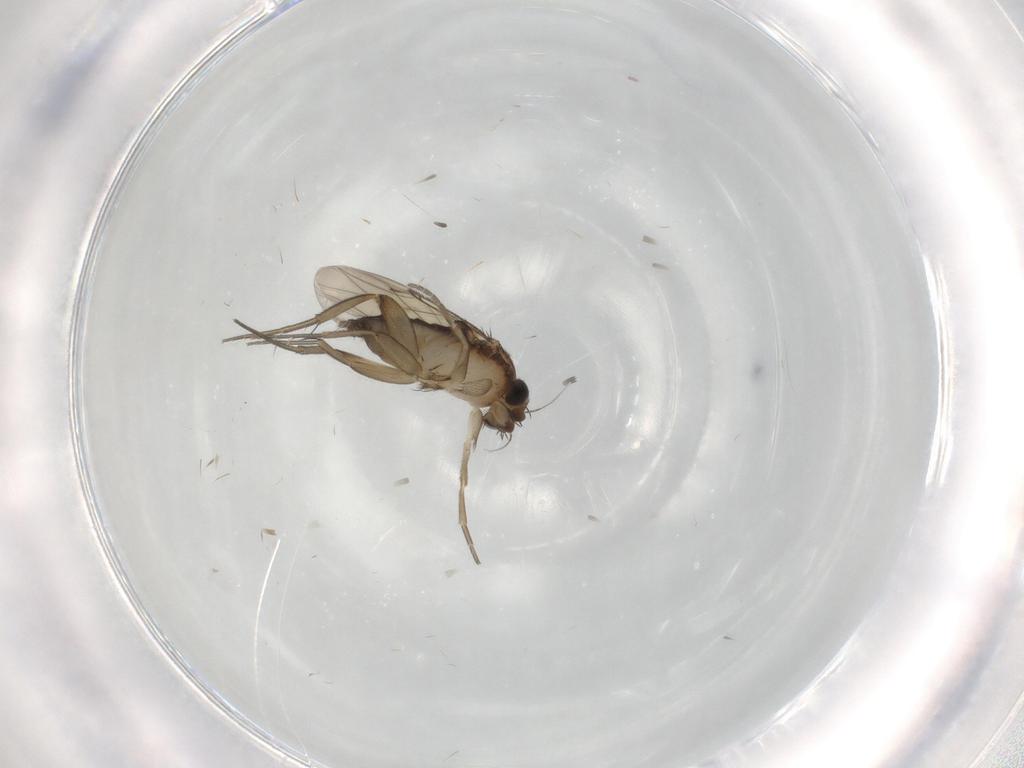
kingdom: Animalia
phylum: Arthropoda
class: Insecta
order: Diptera
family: Phoridae
